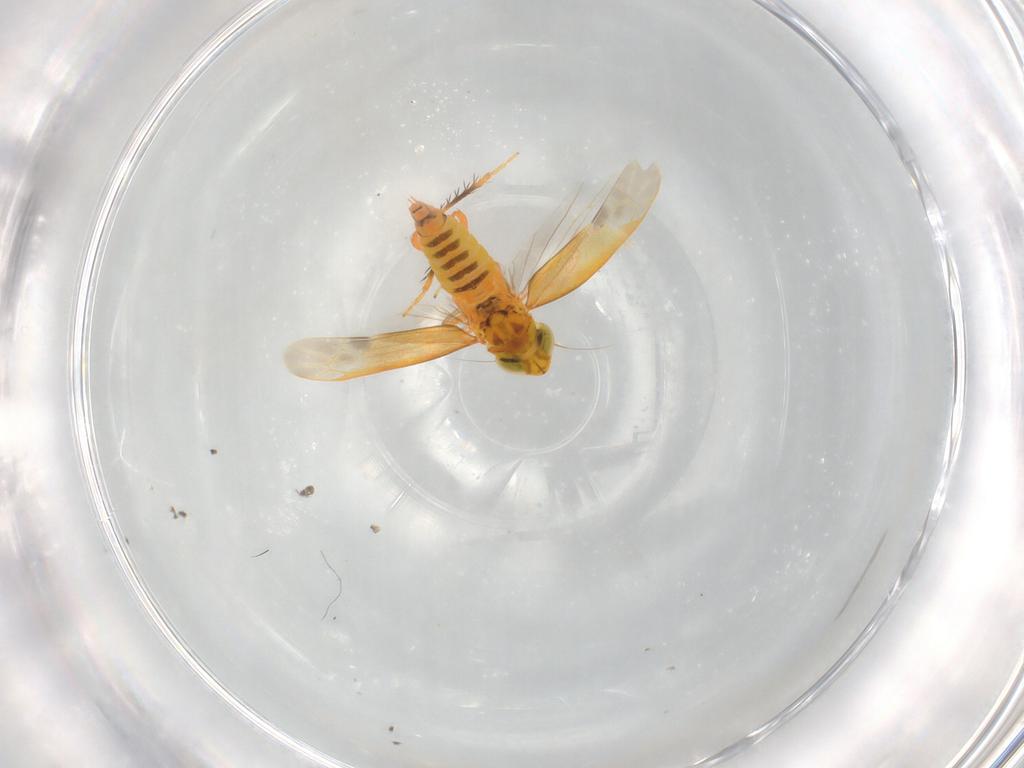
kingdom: Animalia
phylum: Arthropoda
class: Insecta
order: Hemiptera
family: Cicadellidae
